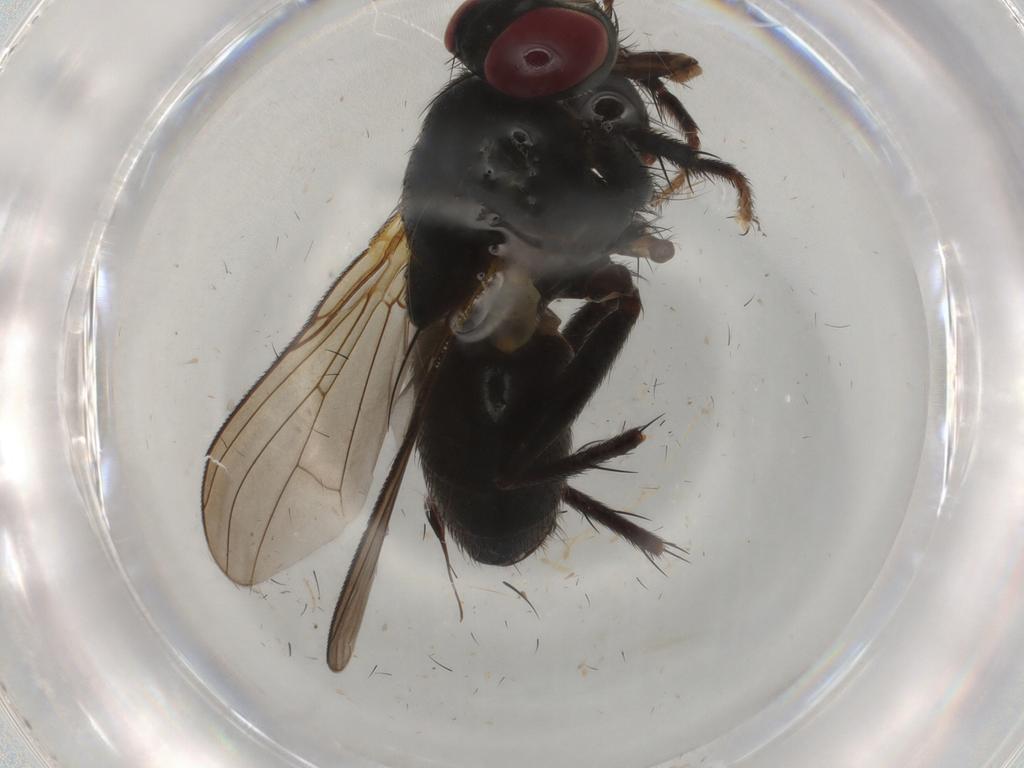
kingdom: Animalia
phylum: Arthropoda
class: Insecta
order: Diptera
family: Muscidae
